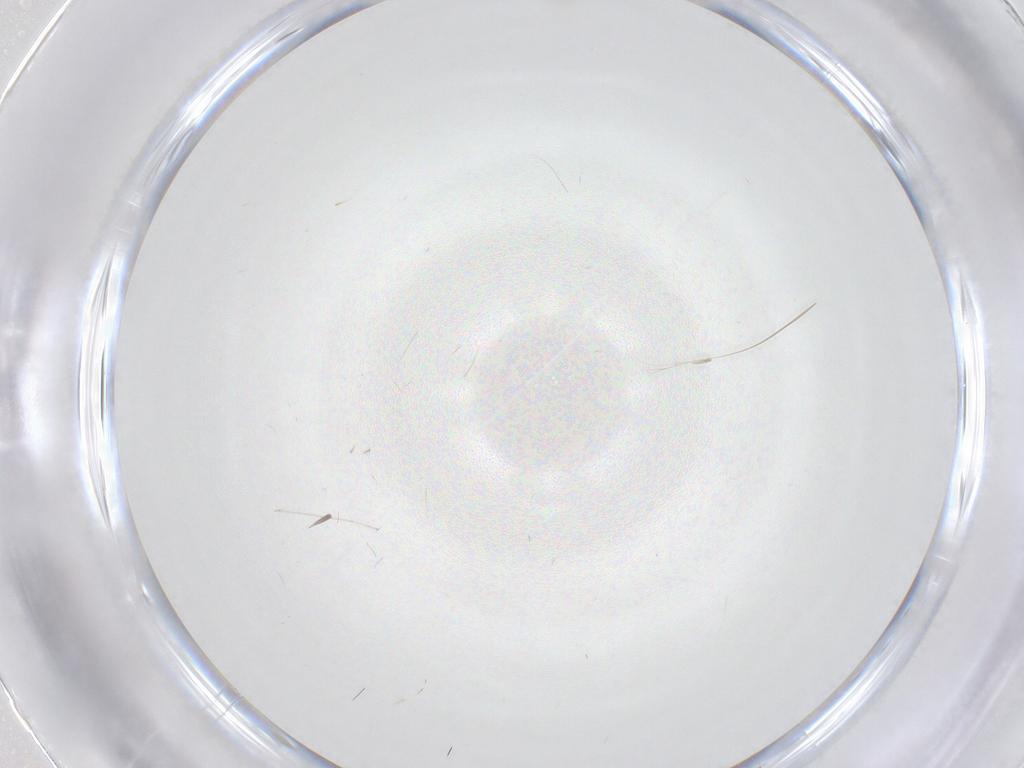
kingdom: Animalia
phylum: Arthropoda
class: Insecta
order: Diptera
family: Cecidomyiidae
